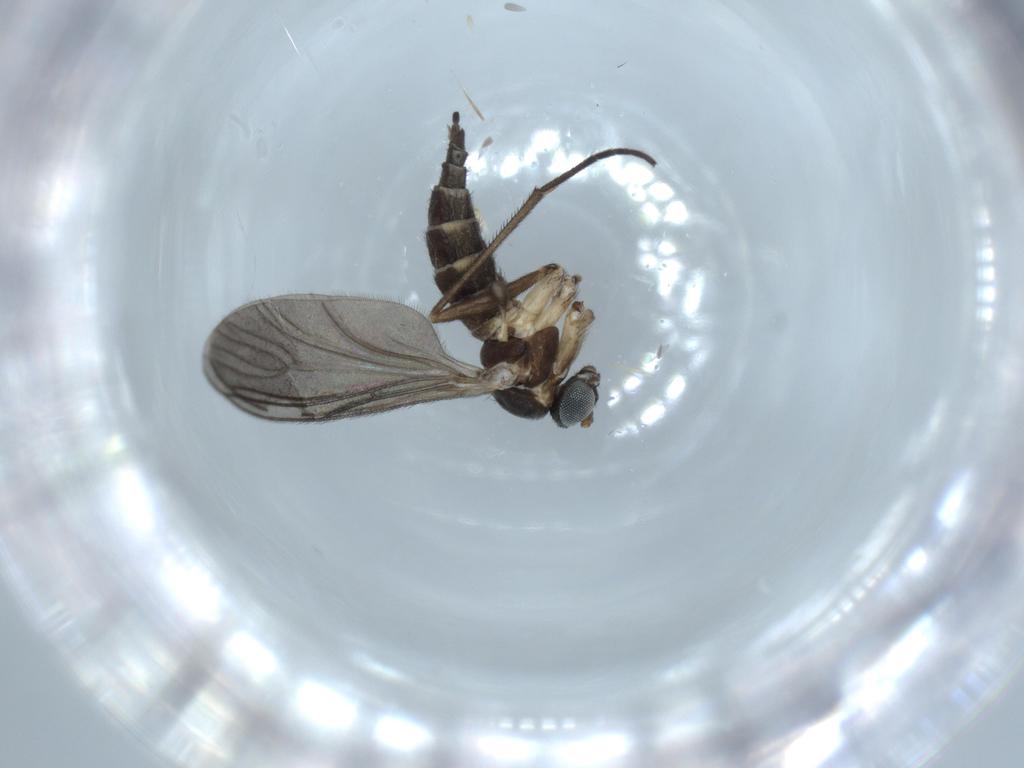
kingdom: Animalia
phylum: Arthropoda
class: Insecta
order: Diptera
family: Sciaridae
